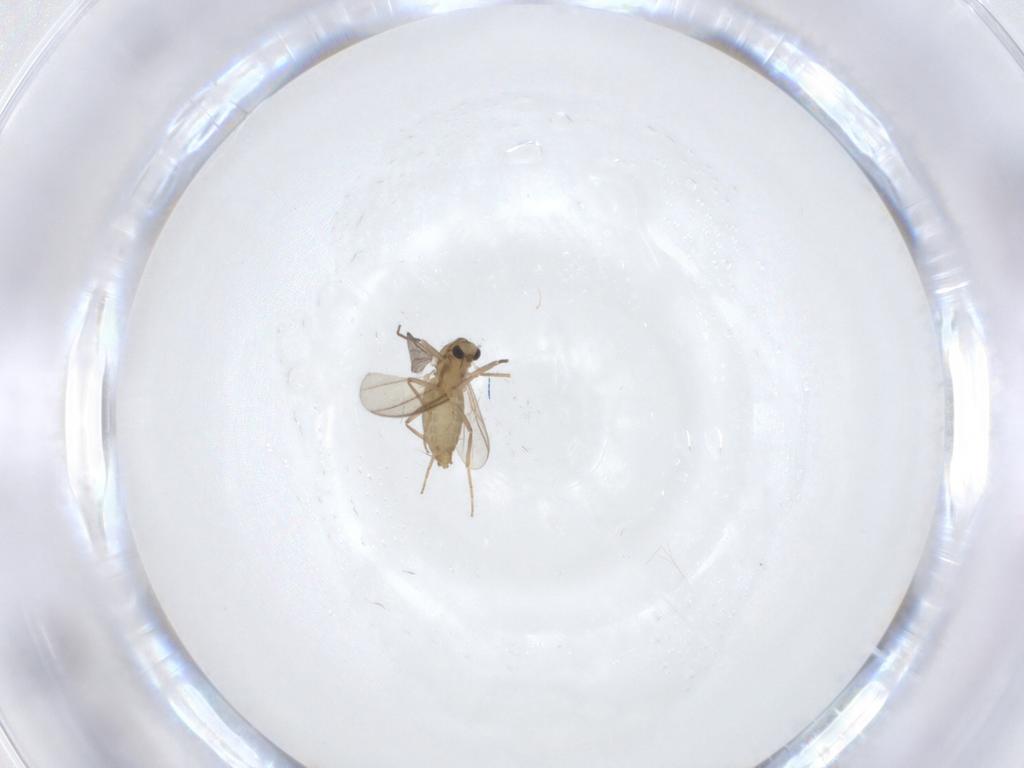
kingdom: Animalia
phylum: Arthropoda
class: Insecta
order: Diptera
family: Chironomidae
